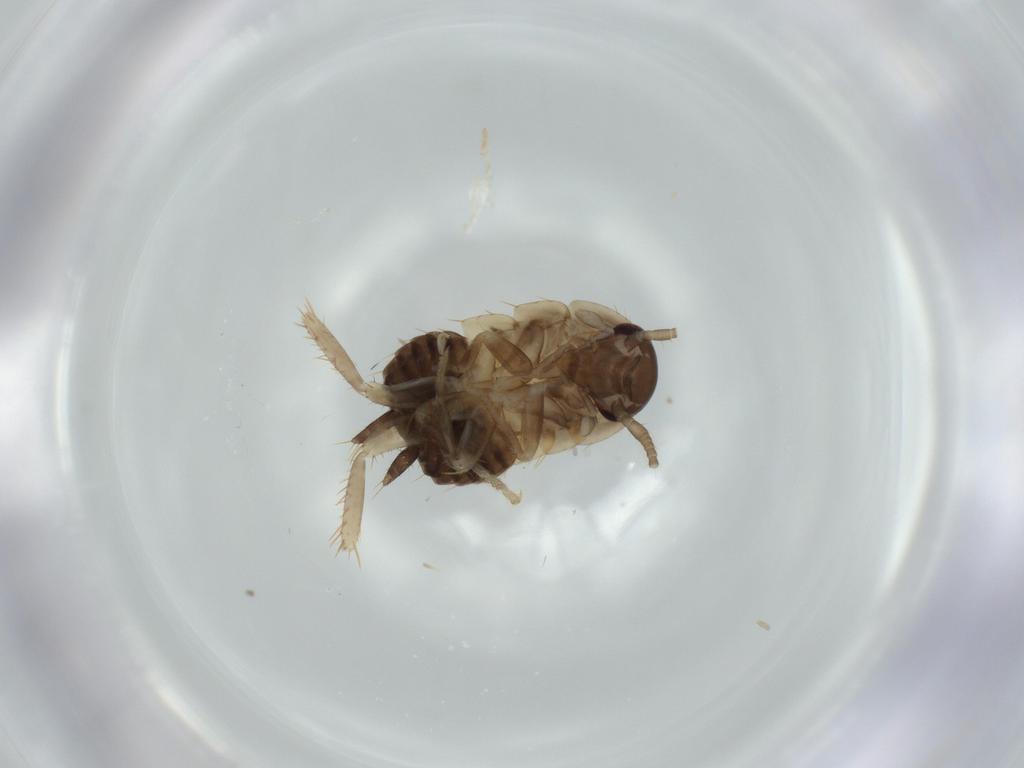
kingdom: Animalia
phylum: Arthropoda
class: Insecta
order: Blattodea
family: Ectobiidae
